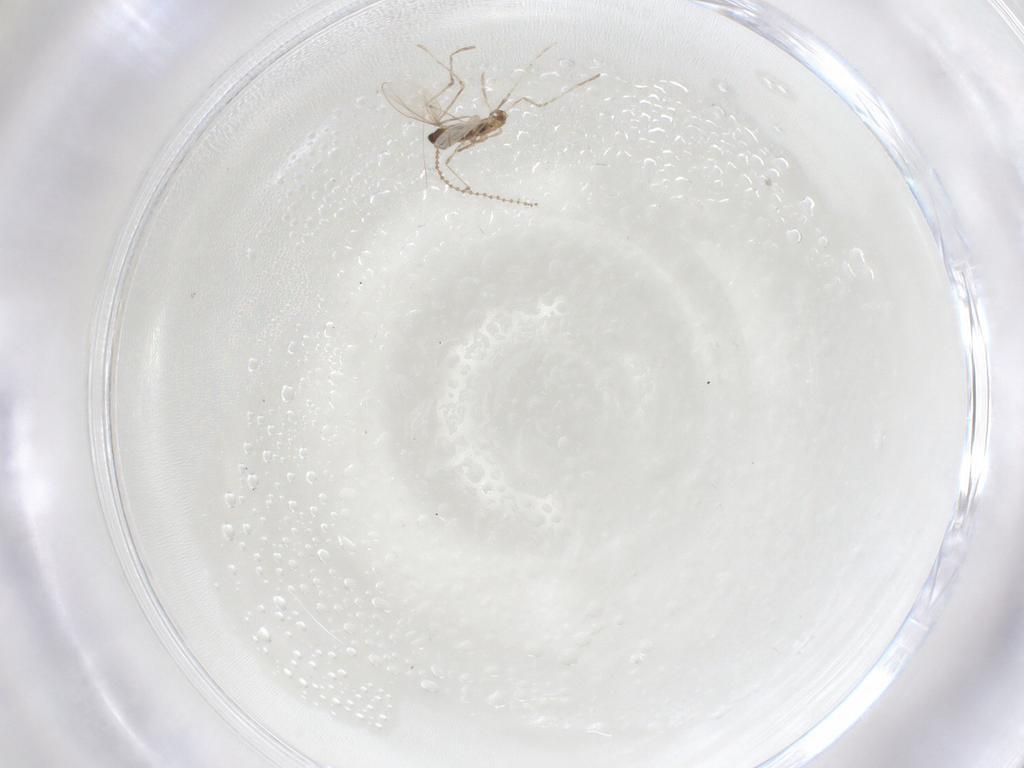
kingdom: Animalia
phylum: Arthropoda
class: Insecta
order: Diptera
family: Cecidomyiidae
